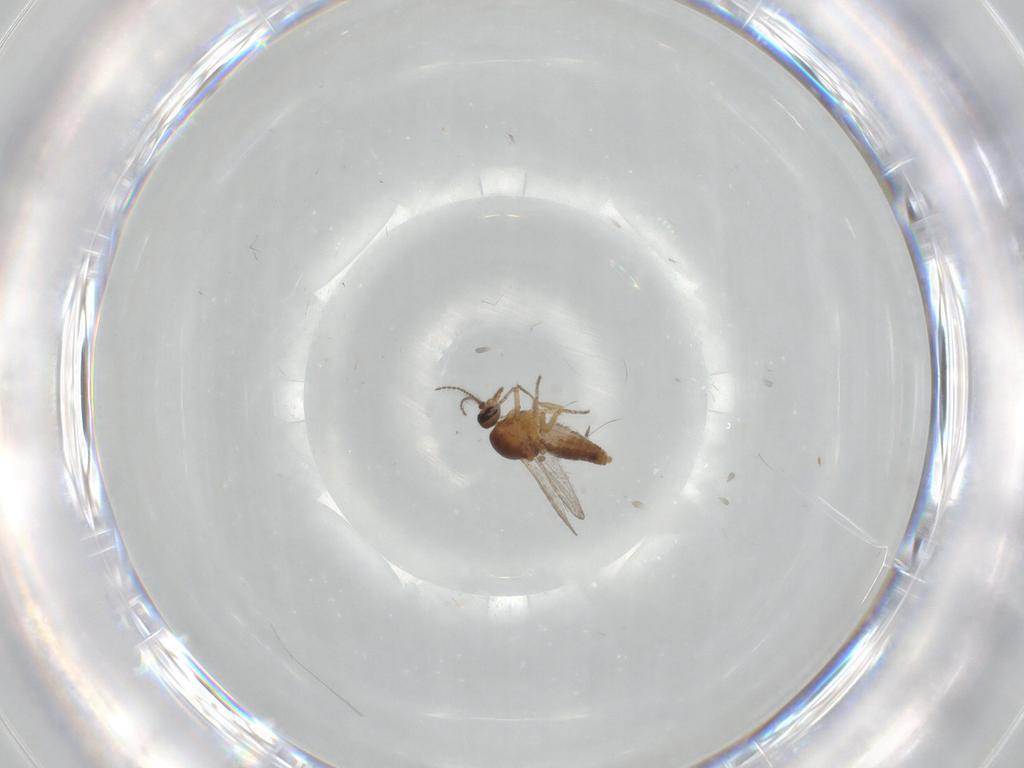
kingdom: Animalia
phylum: Arthropoda
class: Insecta
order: Diptera
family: Ceratopogonidae
